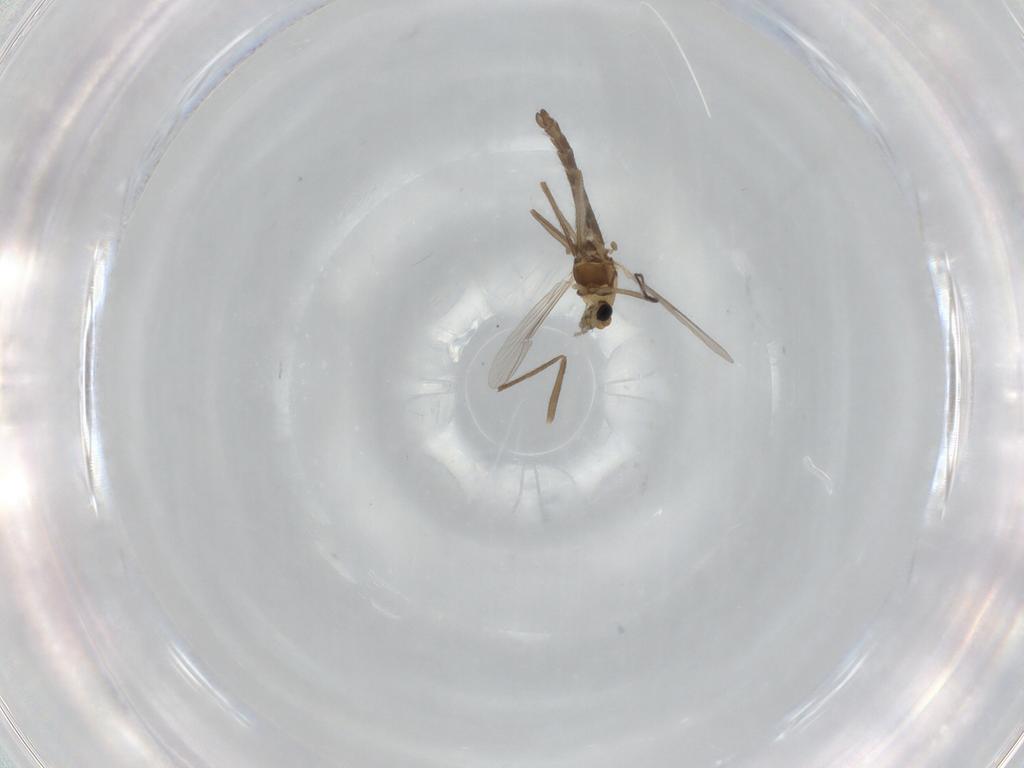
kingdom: Animalia
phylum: Arthropoda
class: Insecta
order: Diptera
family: Chironomidae
